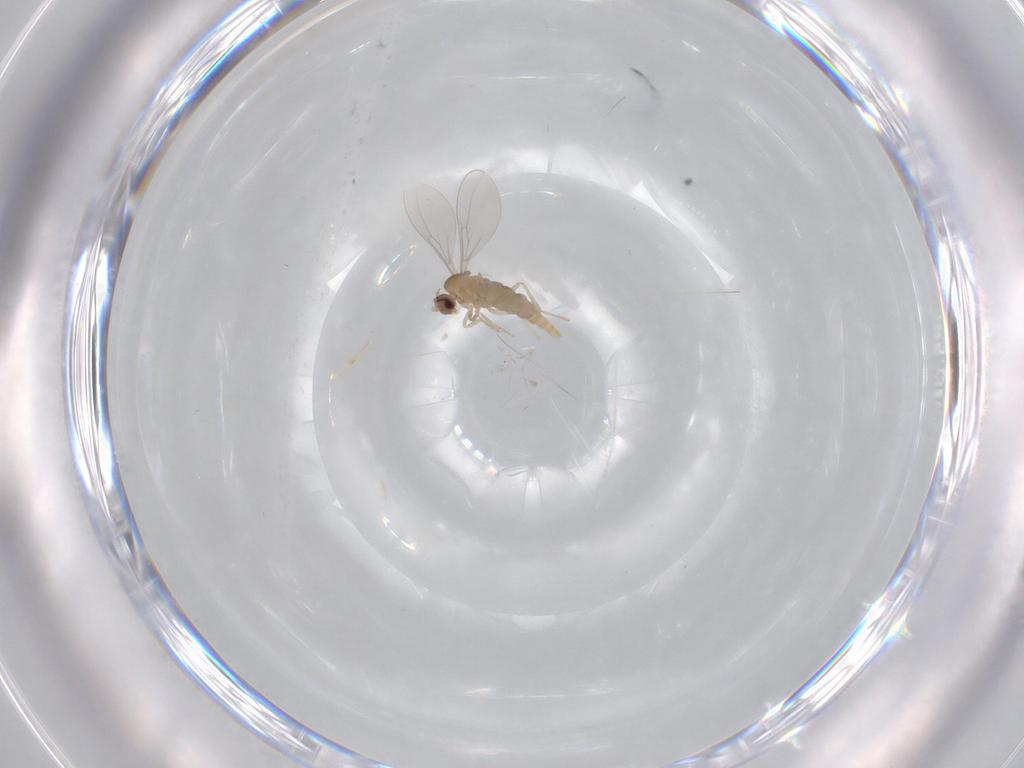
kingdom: Animalia
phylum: Arthropoda
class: Insecta
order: Diptera
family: Cecidomyiidae
